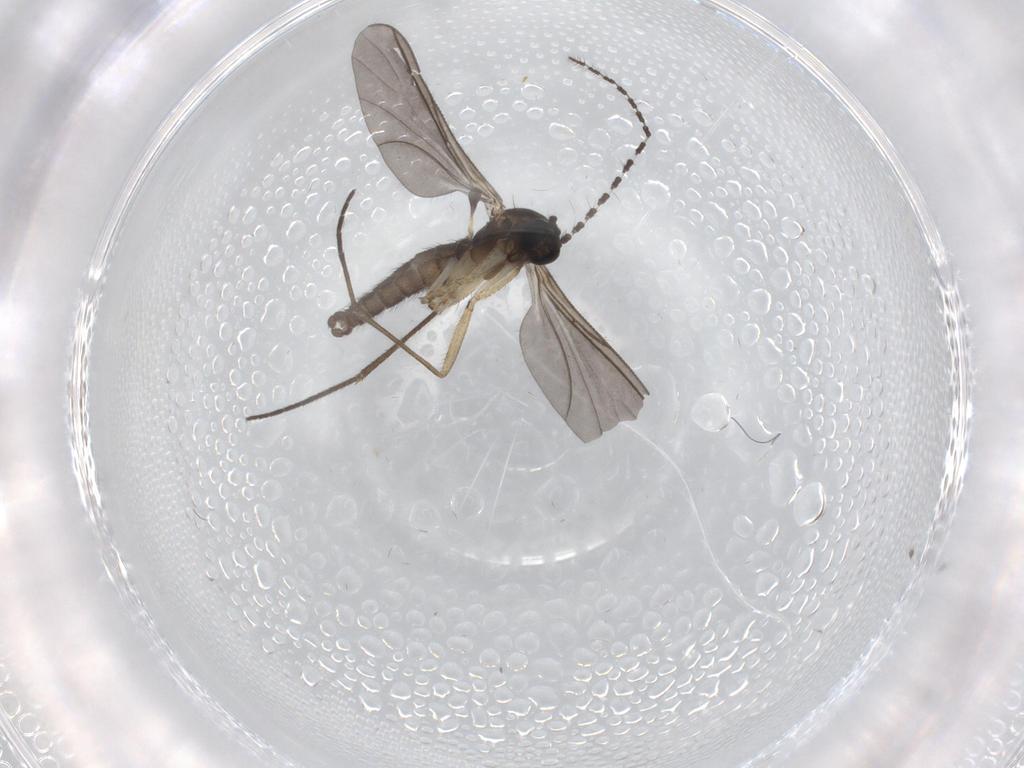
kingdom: Animalia
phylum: Arthropoda
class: Insecta
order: Diptera
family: Sciaridae
